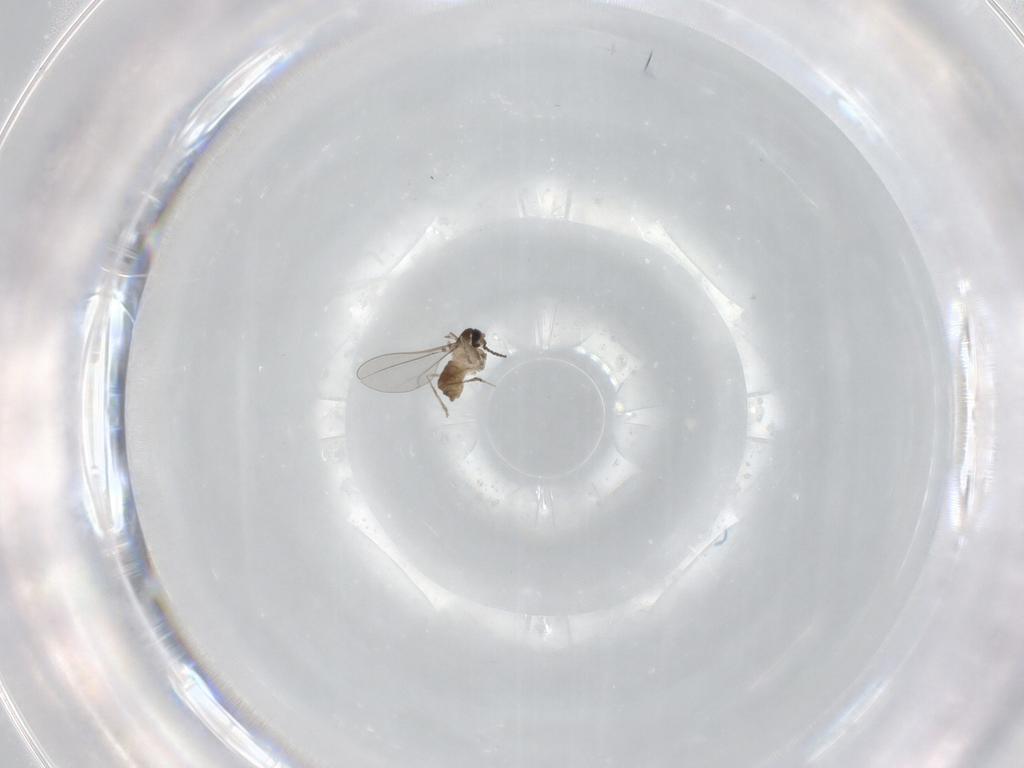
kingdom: Animalia
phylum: Arthropoda
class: Insecta
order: Diptera
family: Cecidomyiidae
